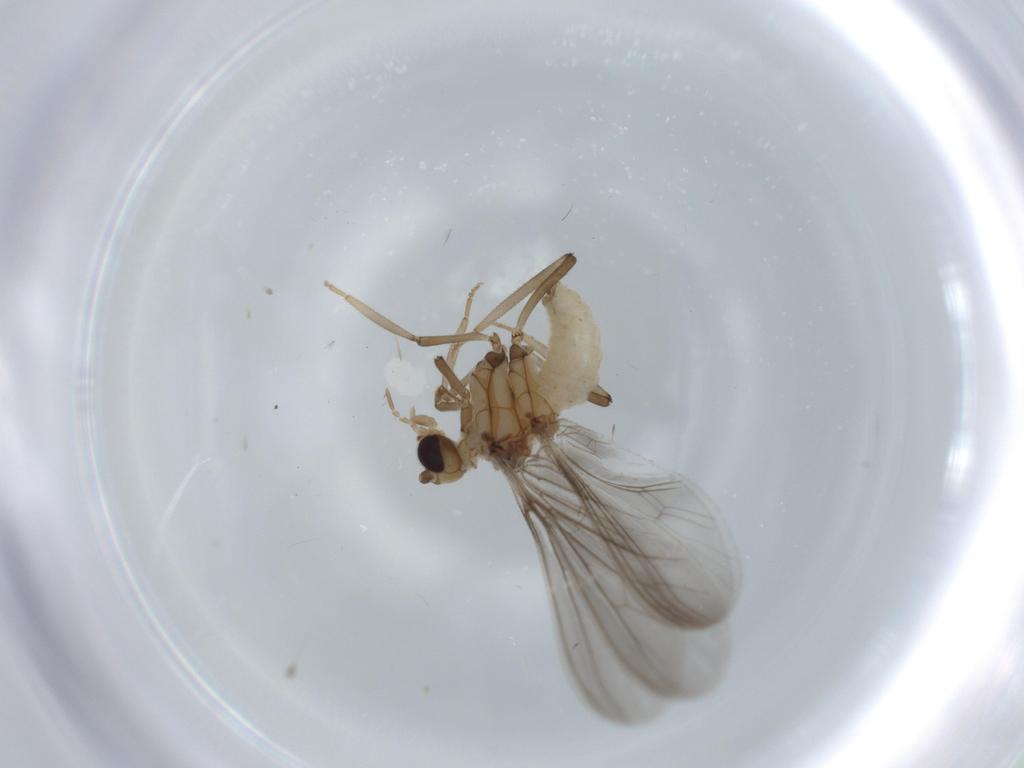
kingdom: Animalia
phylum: Arthropoda
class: Insecta
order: Neuroptera
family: Coniopterygidae
